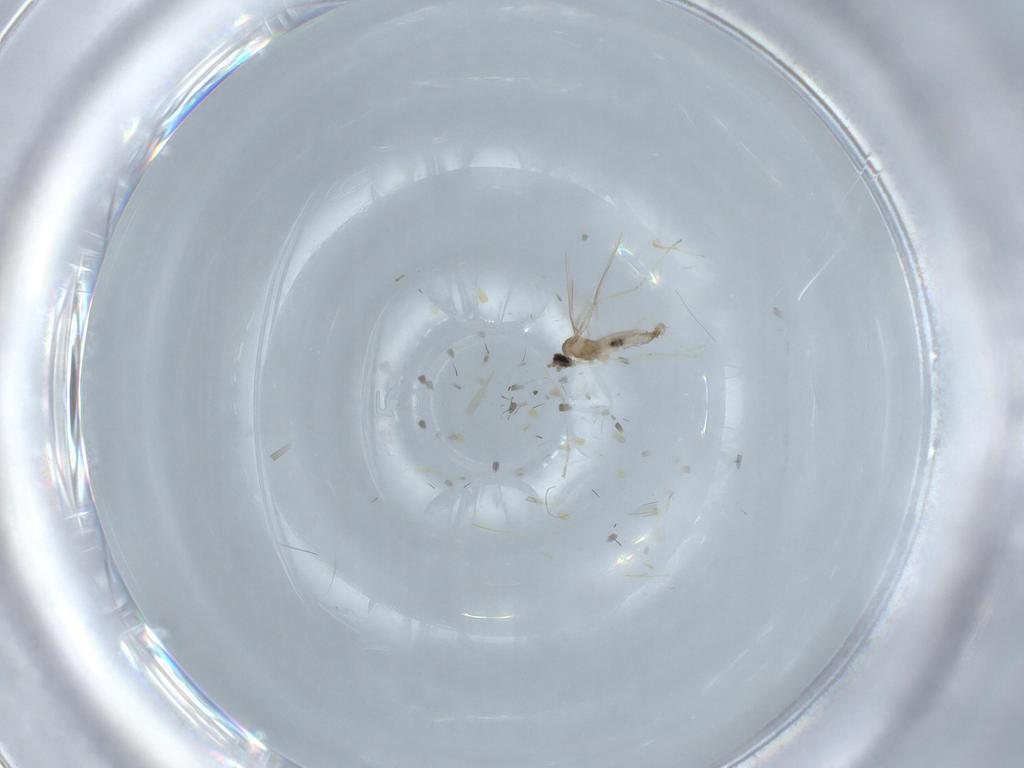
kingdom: Animalia
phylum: Arthropoda
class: Insecta
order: Diptera
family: Cecidomyiidae
